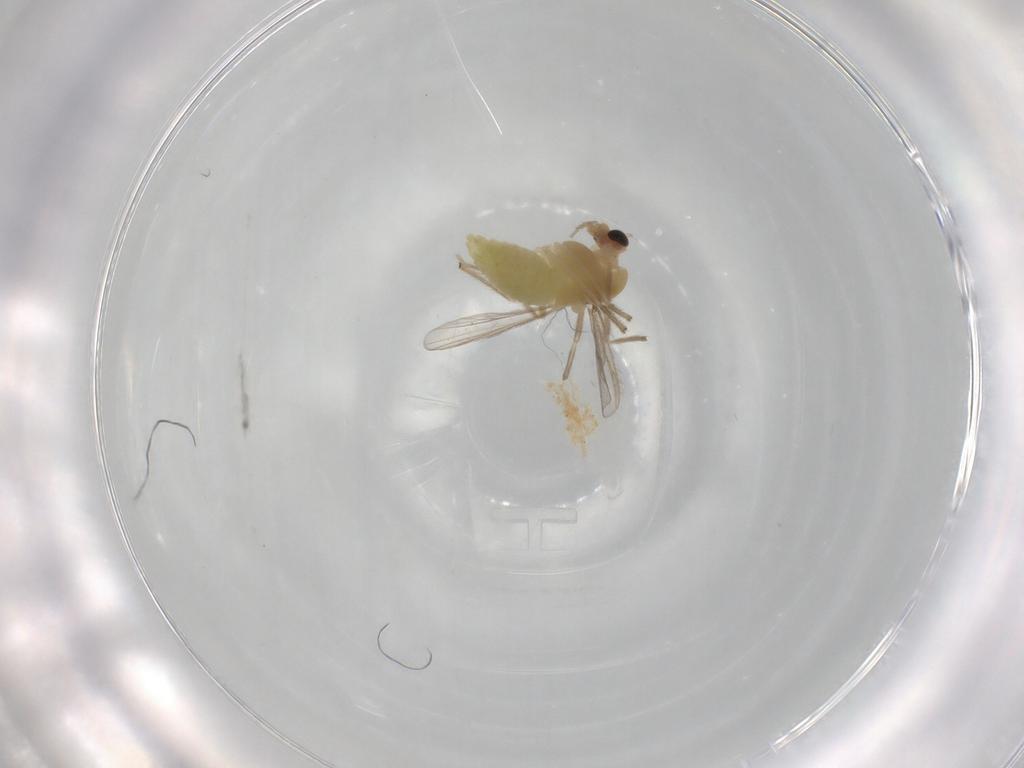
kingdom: Animalia
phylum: Arthropoda
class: Insecta
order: Diptera
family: Chironomidae
